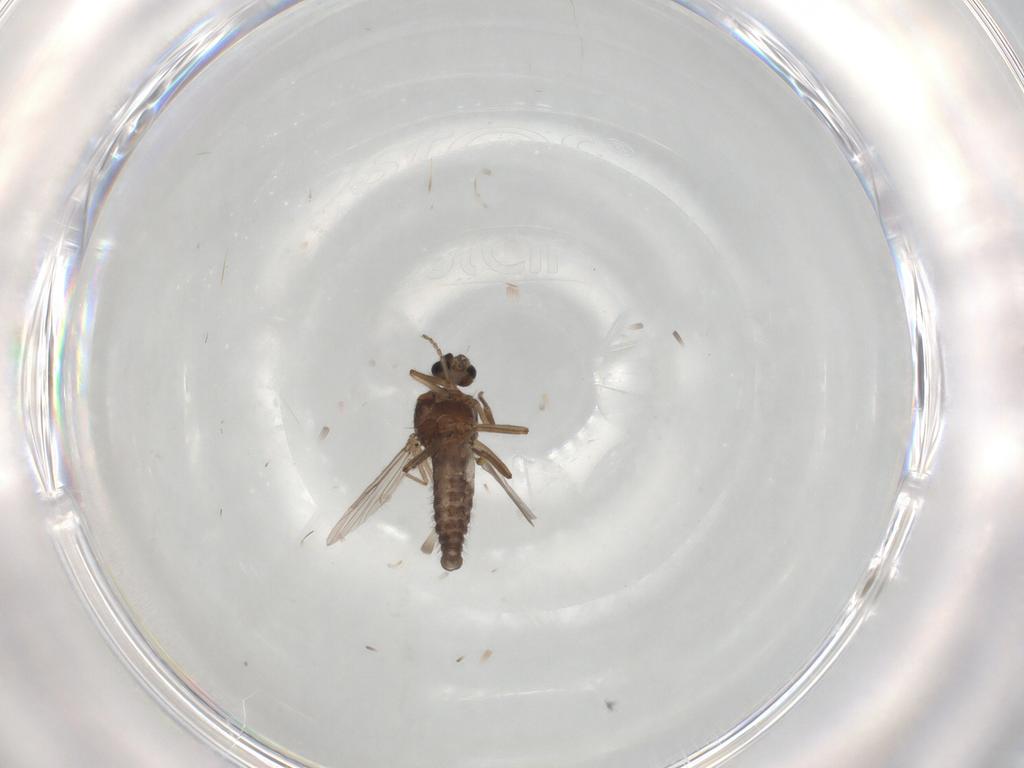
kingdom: Animalia
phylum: Arthropoda
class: Insecta
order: Diptera
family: Ceratopogonidae
